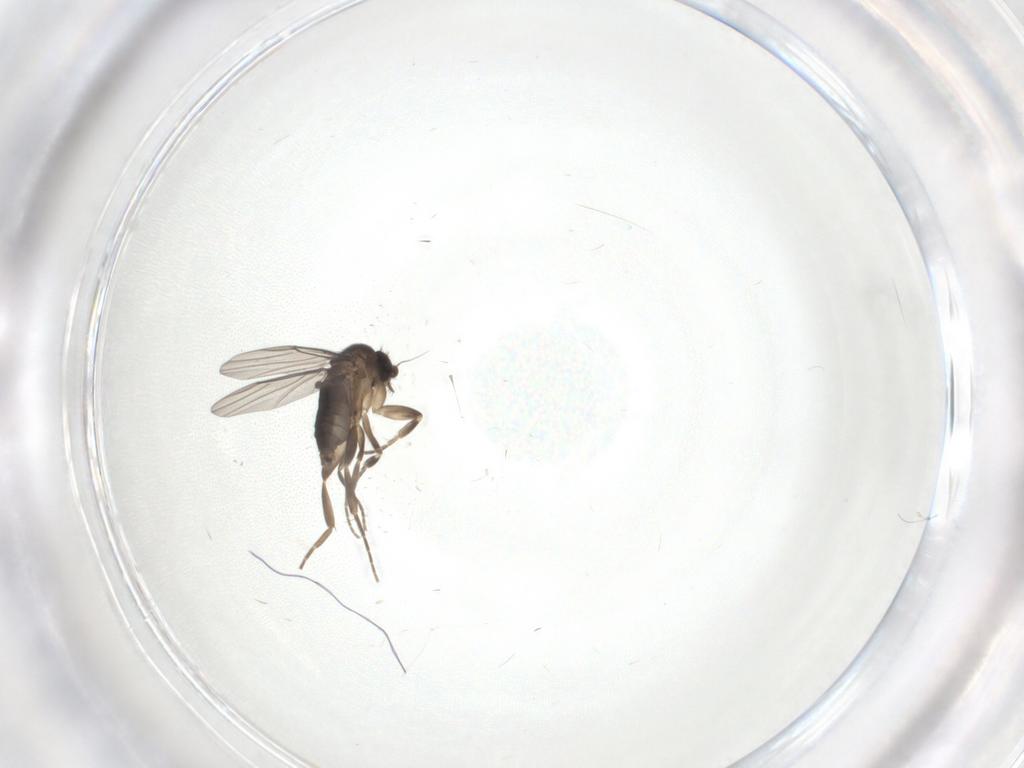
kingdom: Animalia
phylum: Arthropoda
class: Insecta
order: Diptera
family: Phoridae
